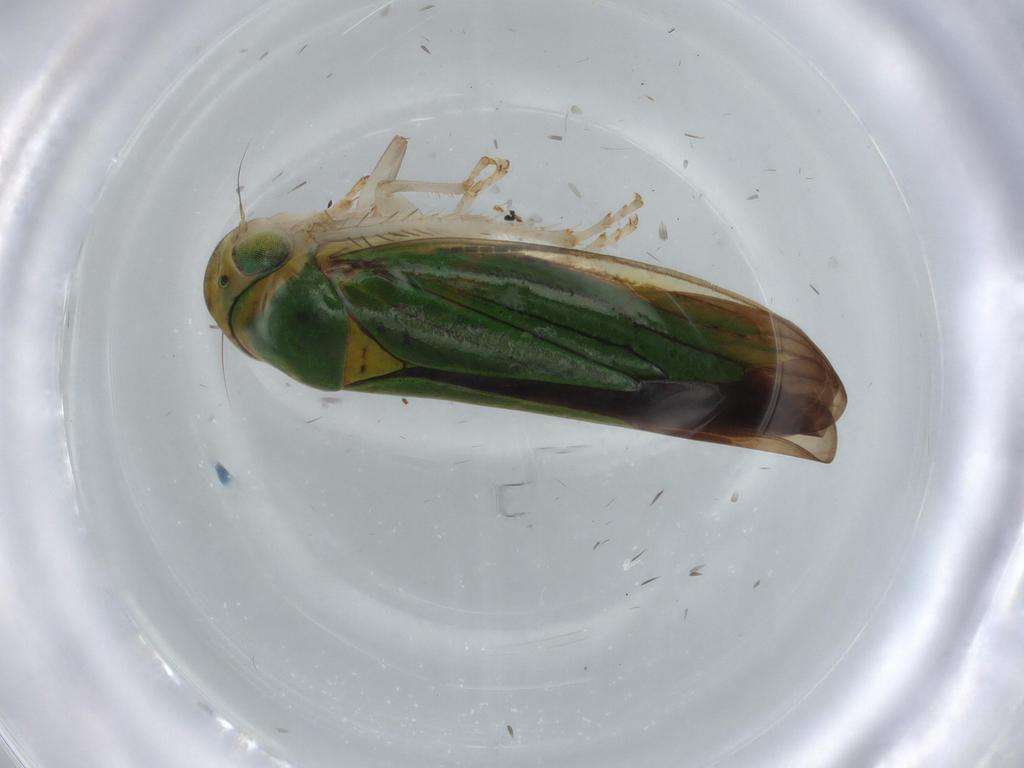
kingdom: Animalia
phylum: Arthropoda
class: Insecta
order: Hemiptera
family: Cicadellidae
